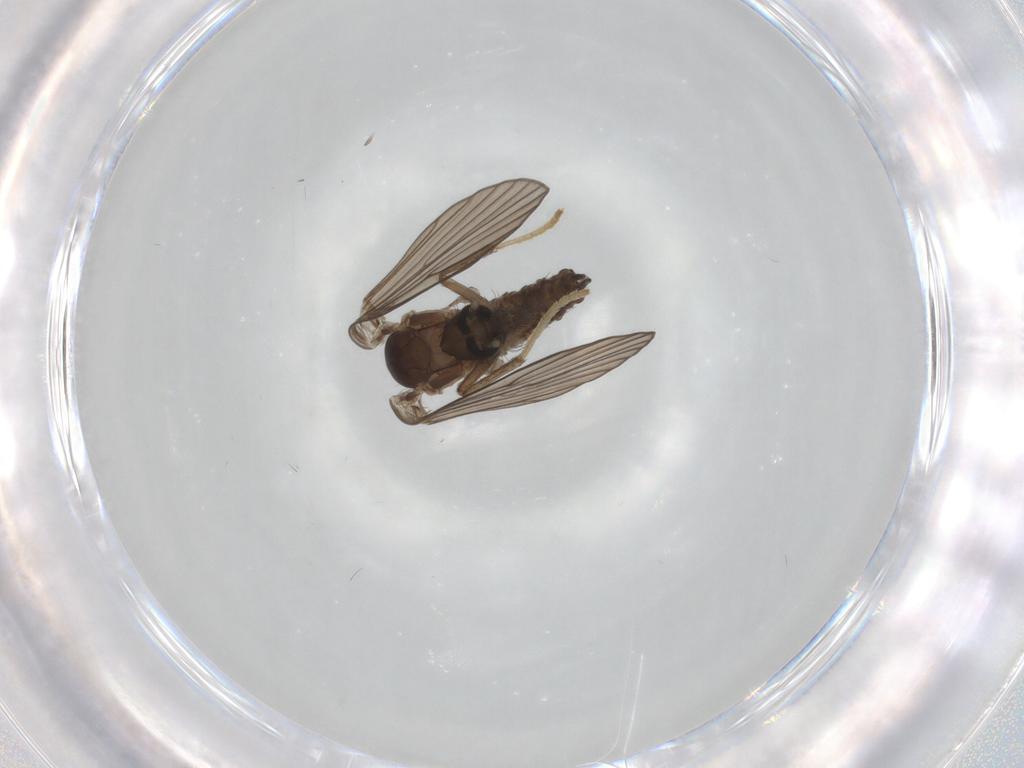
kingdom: Animalia
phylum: Arthropoda
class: Insecta
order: Diptera
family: Psychodidae
